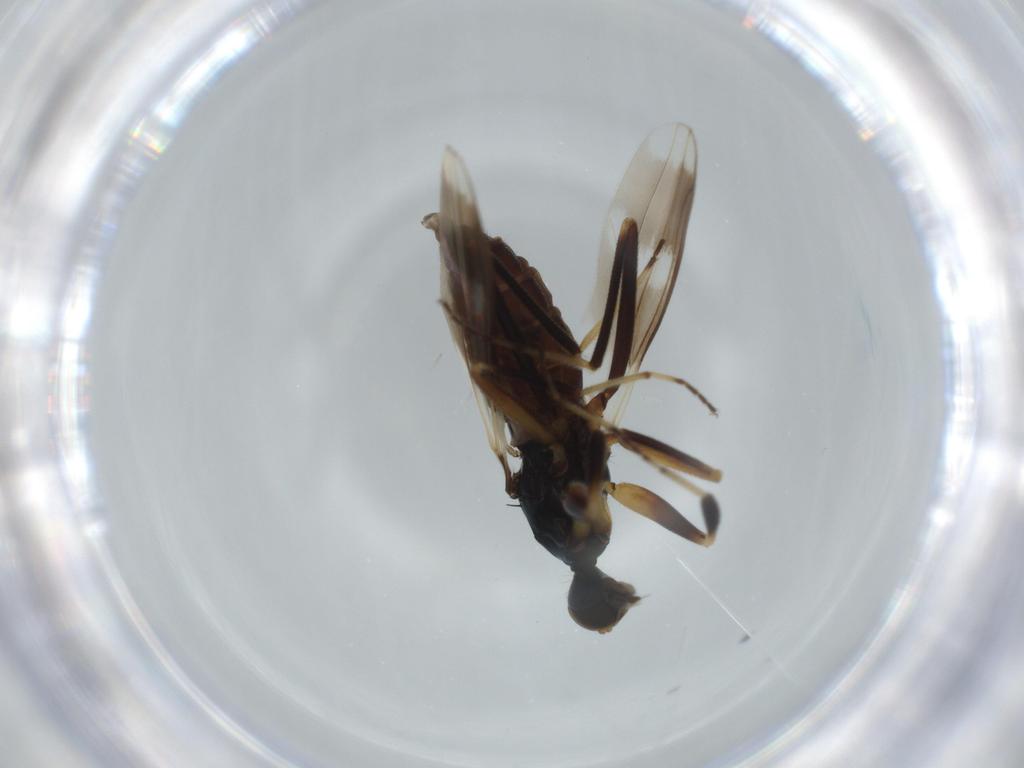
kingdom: Animalia
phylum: Arthropoda
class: Insecta
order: Diptera
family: Hybotidae
